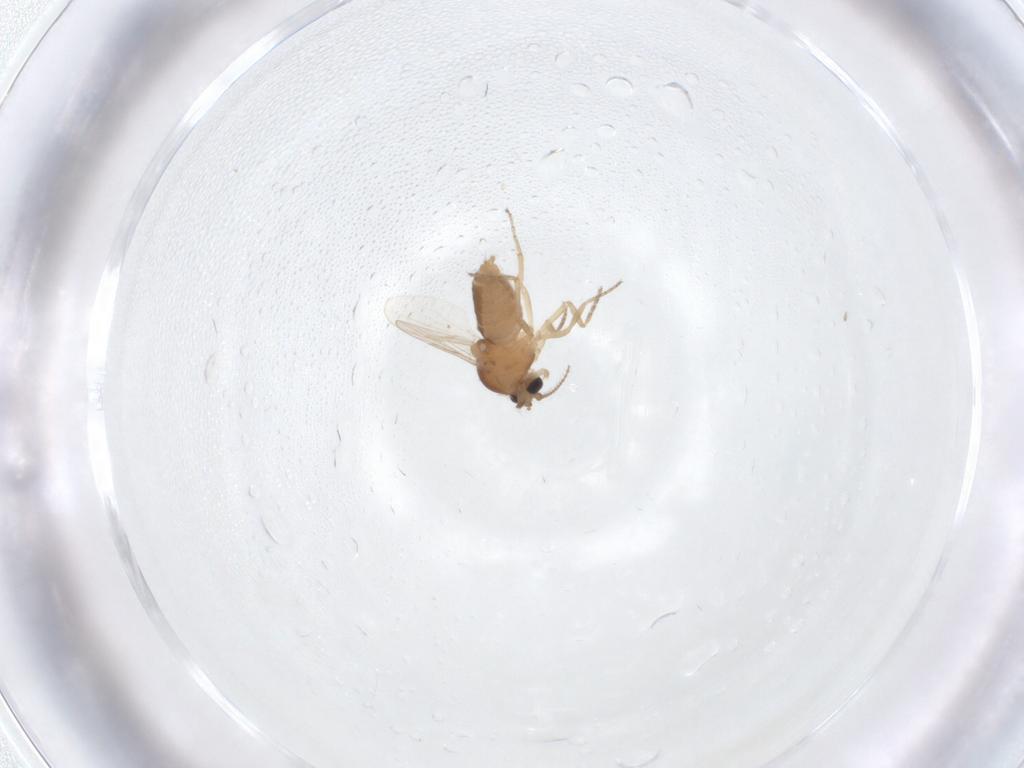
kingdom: Animalia
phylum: Arthropoda
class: Insecta
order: Diptera
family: Ceratopogonidae
